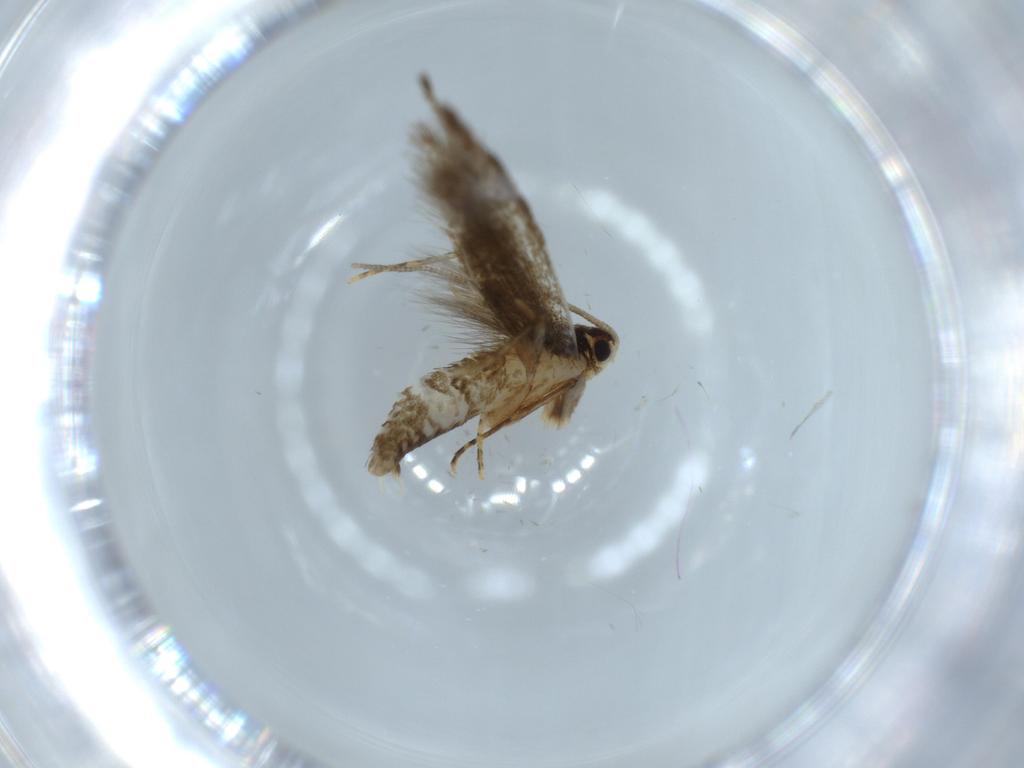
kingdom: Animalia
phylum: Arthropoda
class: Insecta
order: Lepidoptera
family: Tineidae
